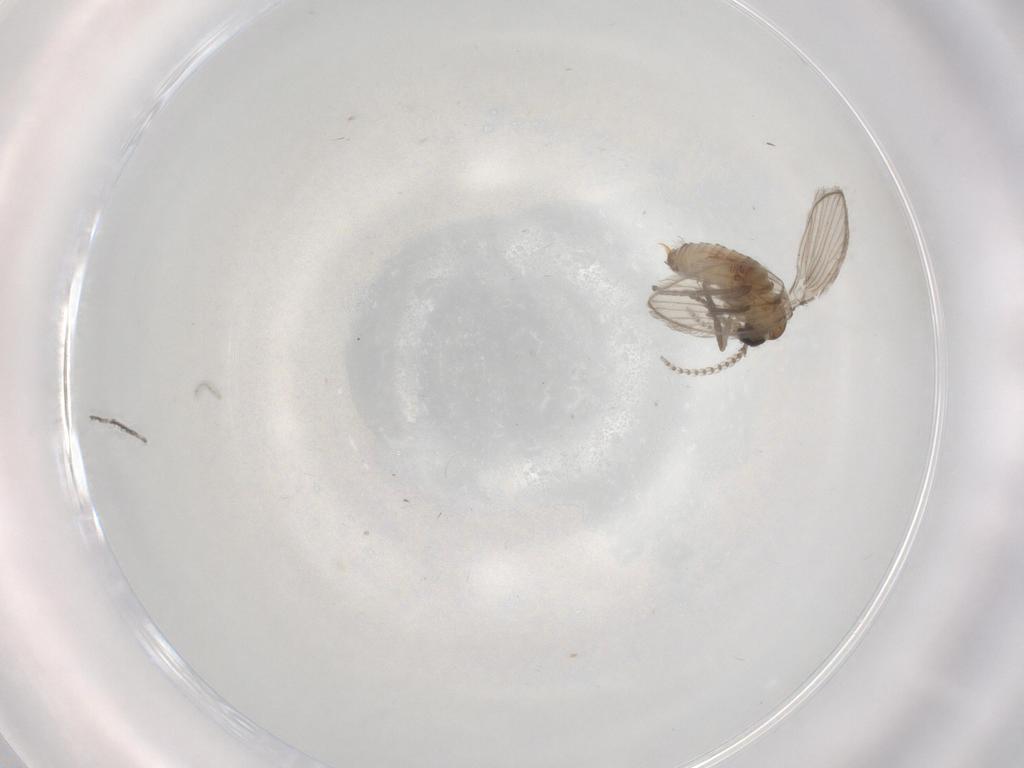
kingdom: Animalia
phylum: Arthropoda
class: Insecta
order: Diptera
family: Psychodidae
